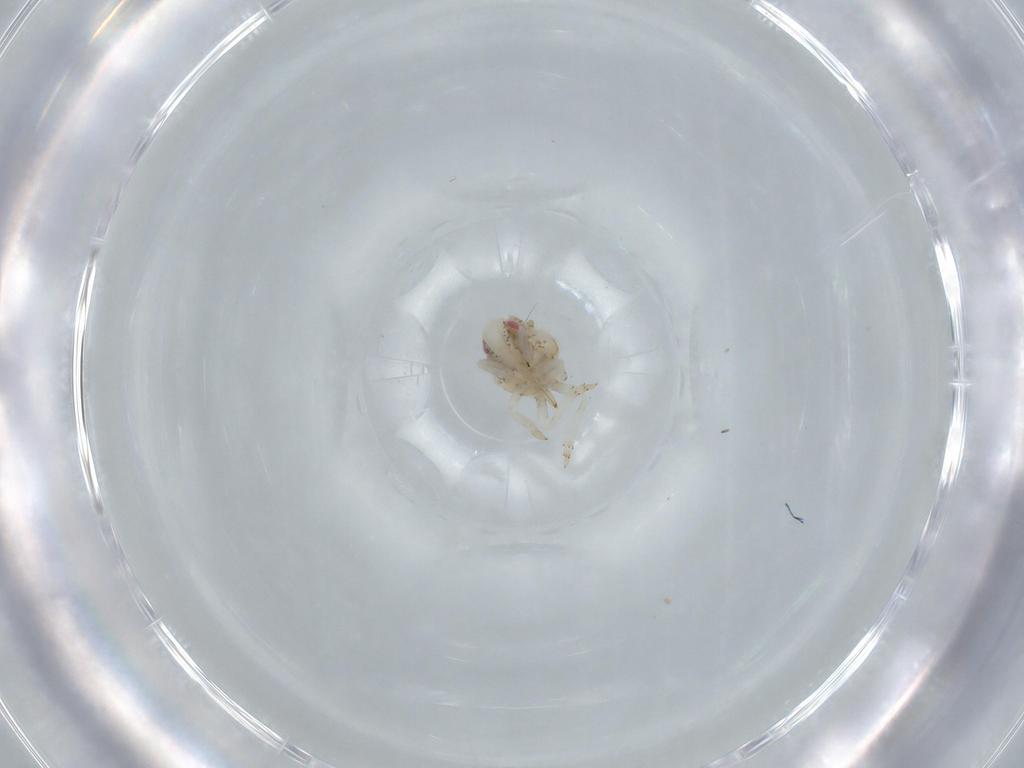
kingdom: Animalia
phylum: Arthropoda
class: Insecta
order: Hemiptera
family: Acanaloniidae
